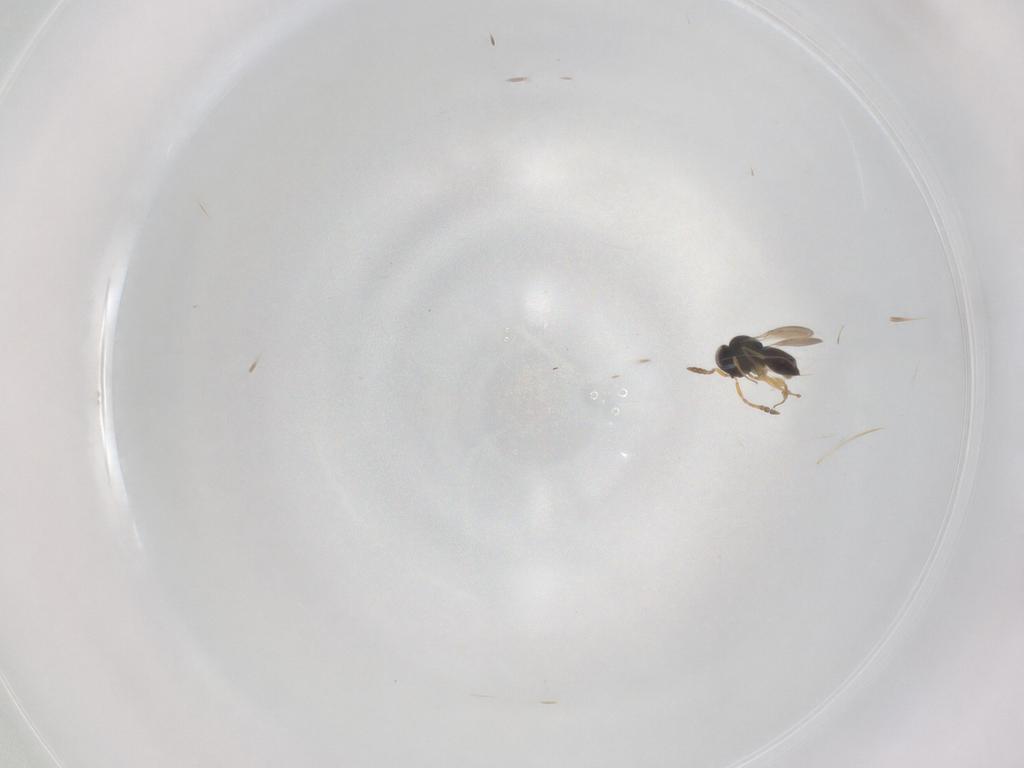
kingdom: Animalia
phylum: Arthropoda
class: Insecta
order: Hymenoptera
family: Scelionidae
